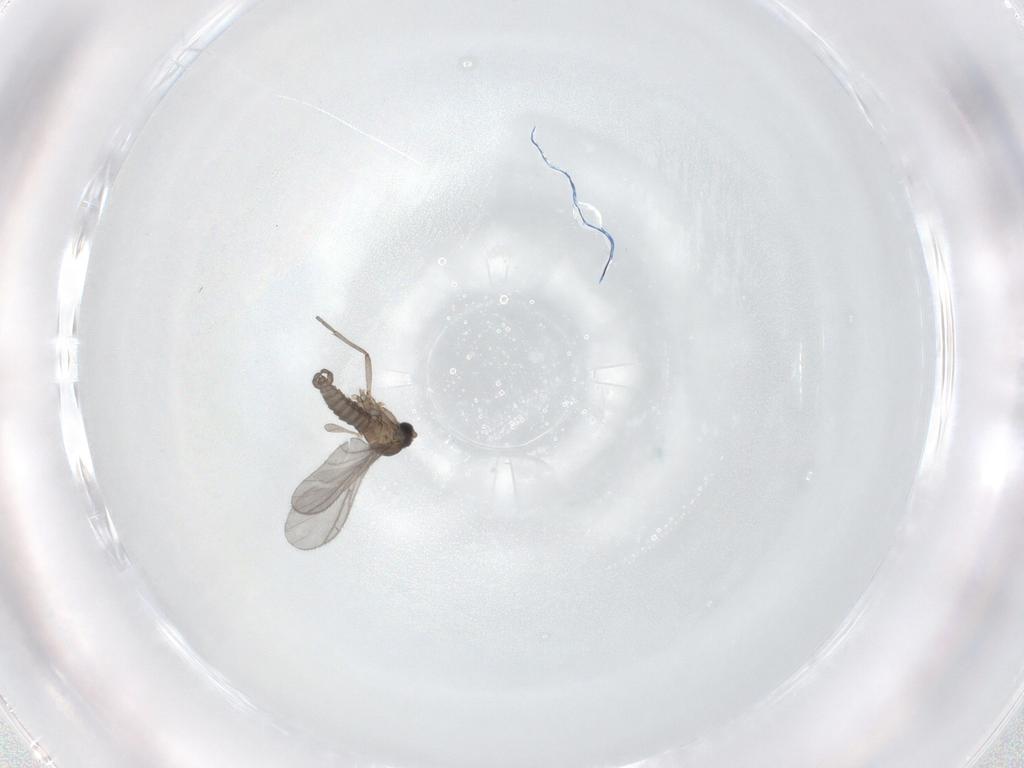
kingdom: Animalia
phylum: Arthropoda
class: Insecta
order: Diptera
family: Sciaridae
